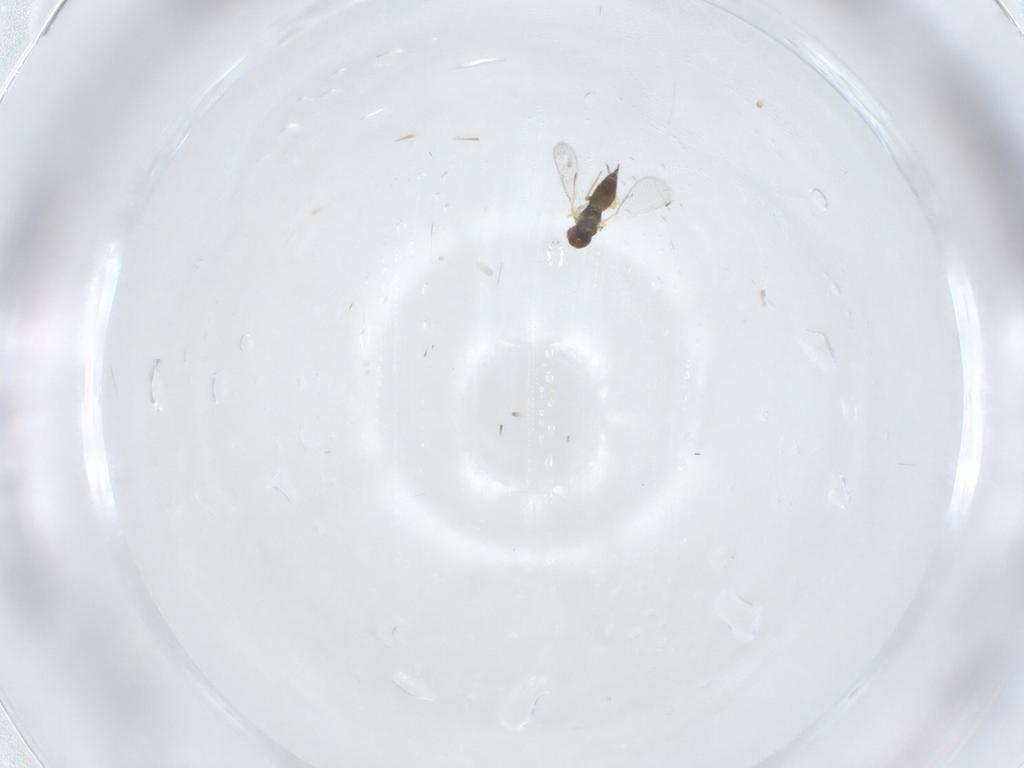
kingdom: Animalia
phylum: Arthropoda
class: Insecta
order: Hymenoptera
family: Eulophidae
